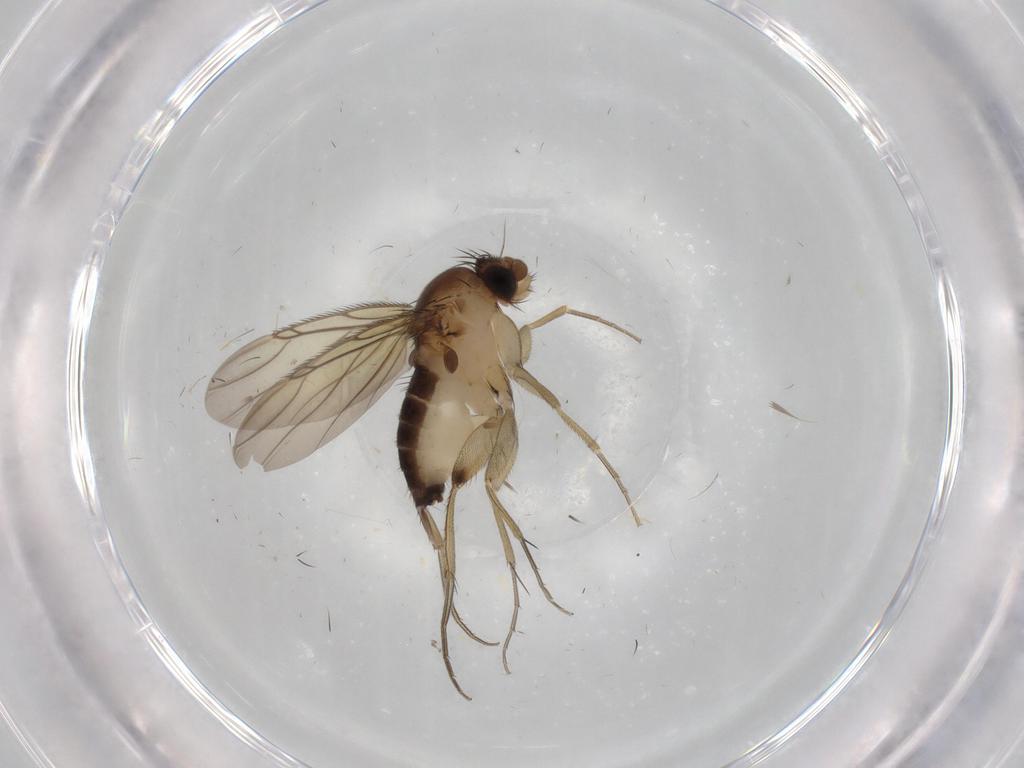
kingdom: Animalia
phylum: Arthropoda
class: Insecta
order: Diptera
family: Phoridae
